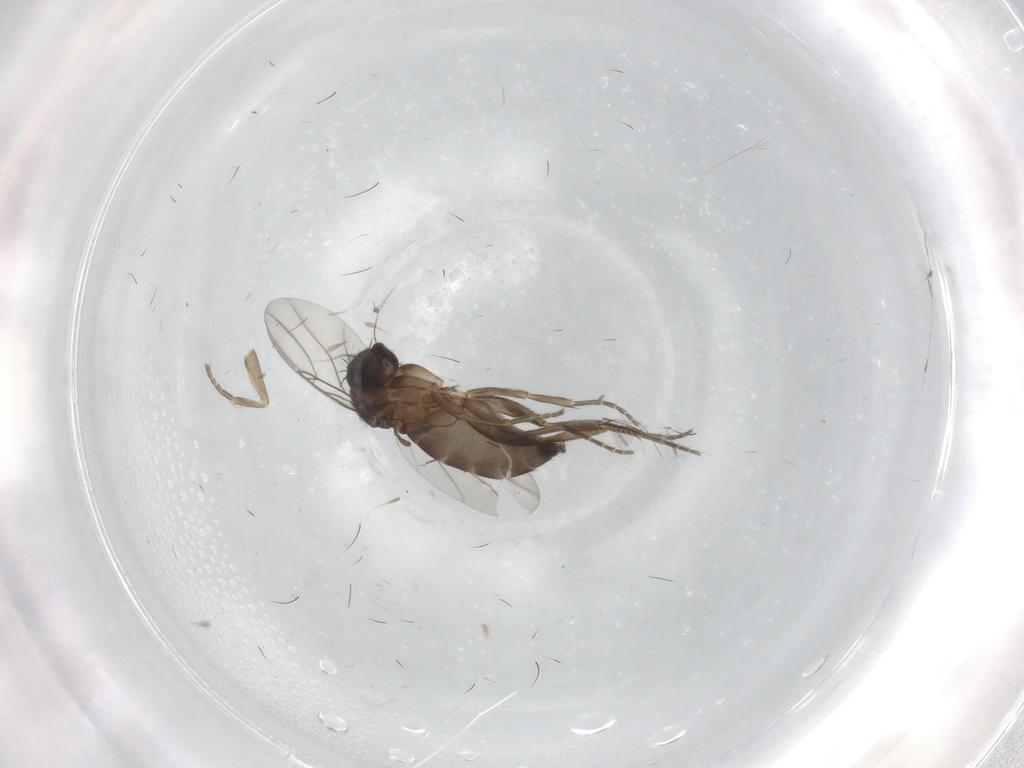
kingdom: Animalia
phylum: Arthropoda
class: Insecta
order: Diptera
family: Phoridae
